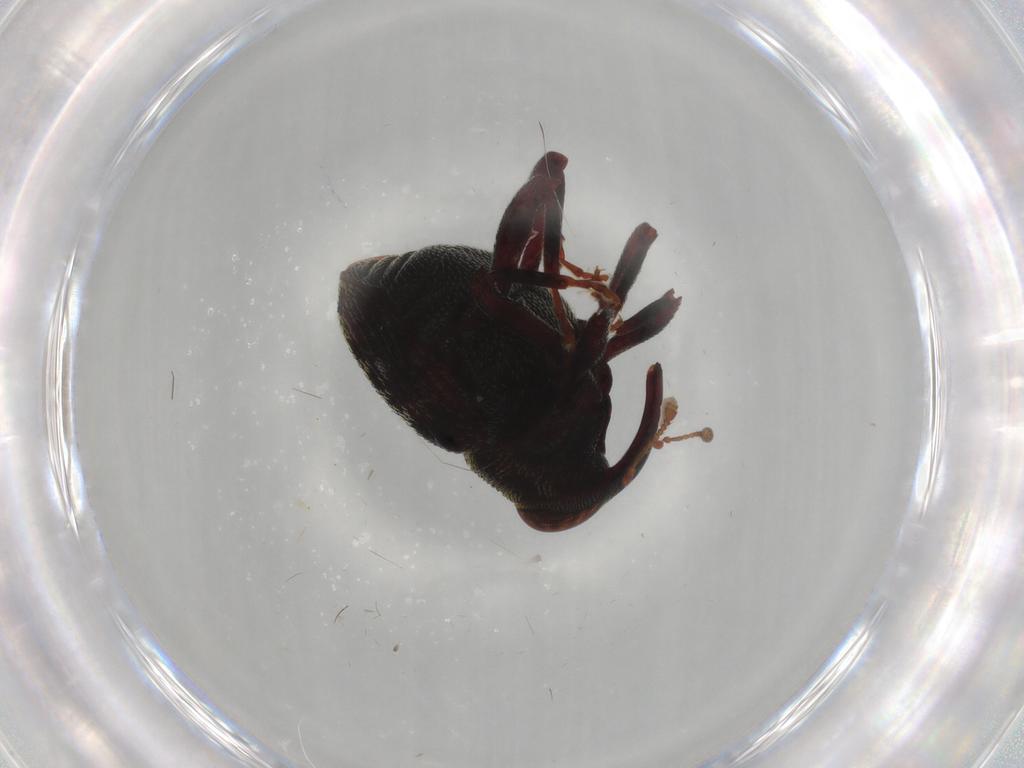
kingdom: Animalia
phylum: Arthropoda
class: Insecta
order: Coleoptera
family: Curculionidae
